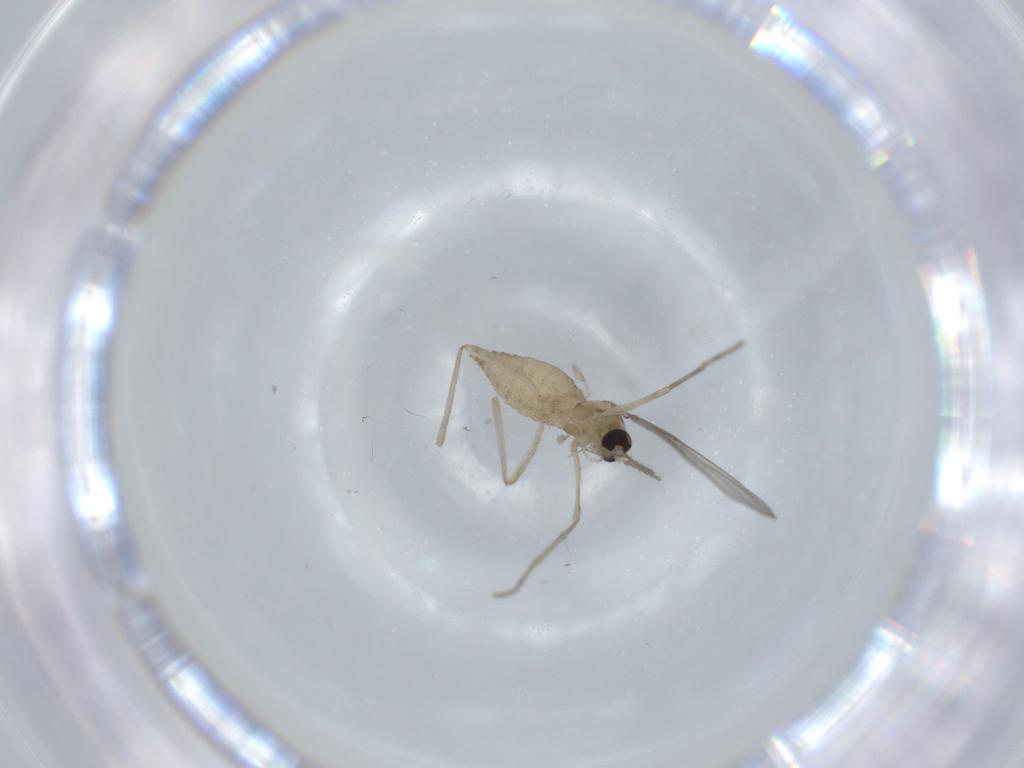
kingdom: Animalia
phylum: Arthropoda
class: Insecta
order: Diptera
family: Cecidomyiidae
